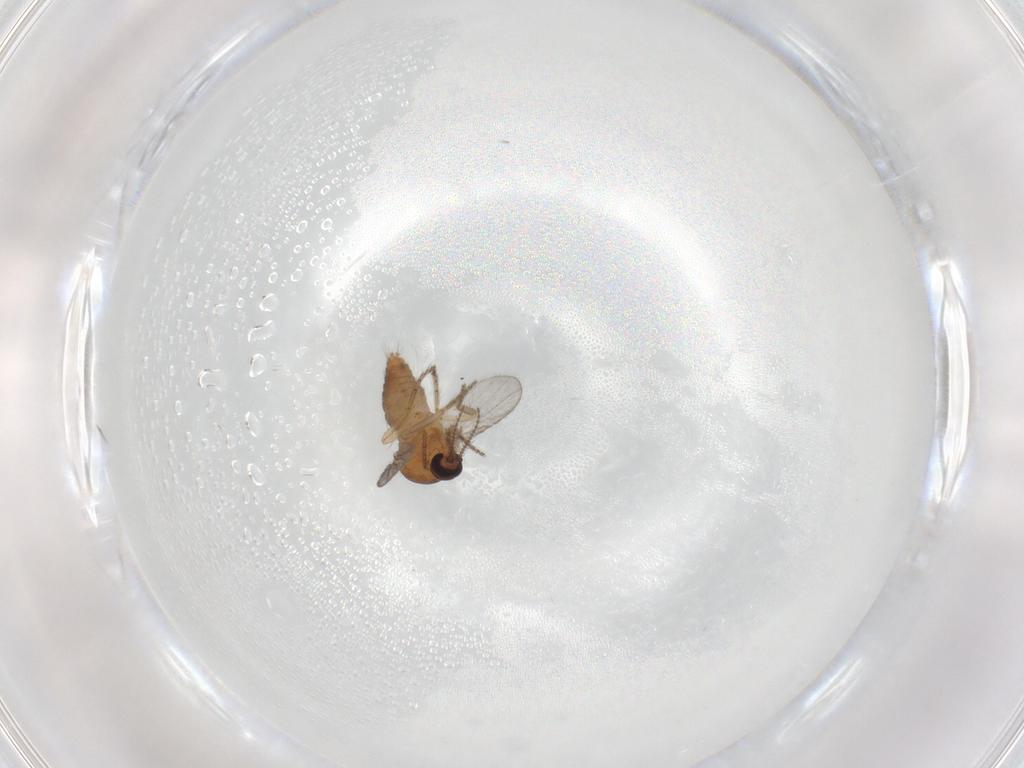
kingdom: Animalia
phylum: Arthropoda
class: Insecta
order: Diptera
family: Ceratopogonidae
